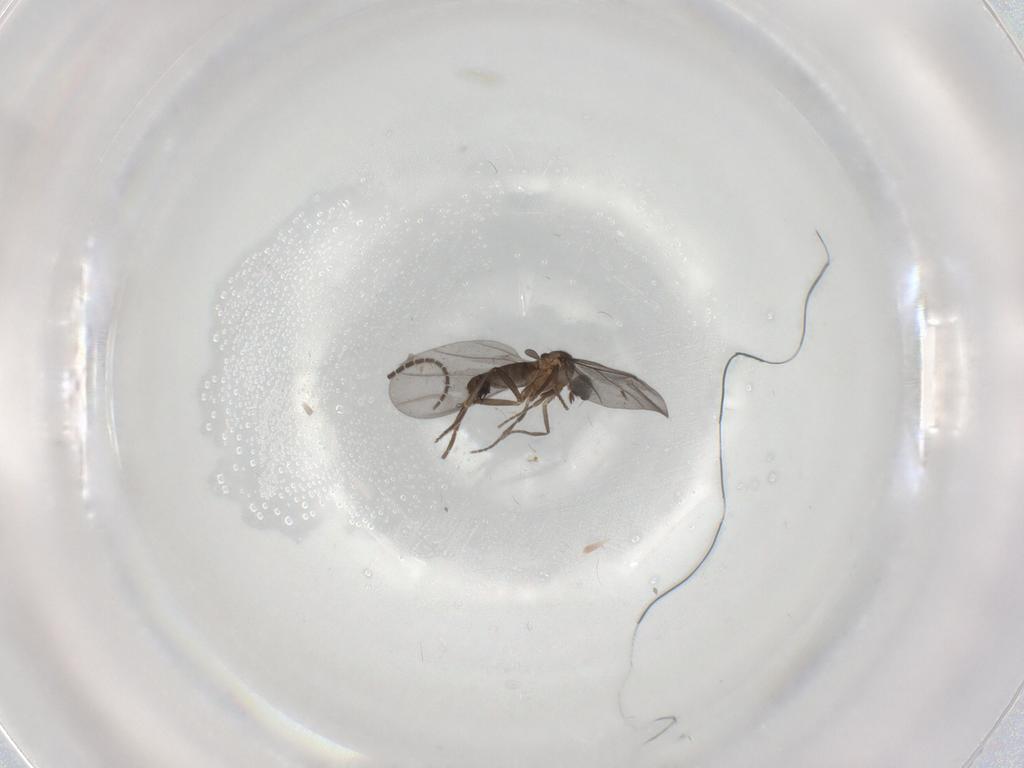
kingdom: Animalia
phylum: Arthropoda
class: Insecta
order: Diptera
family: Sciaridae
